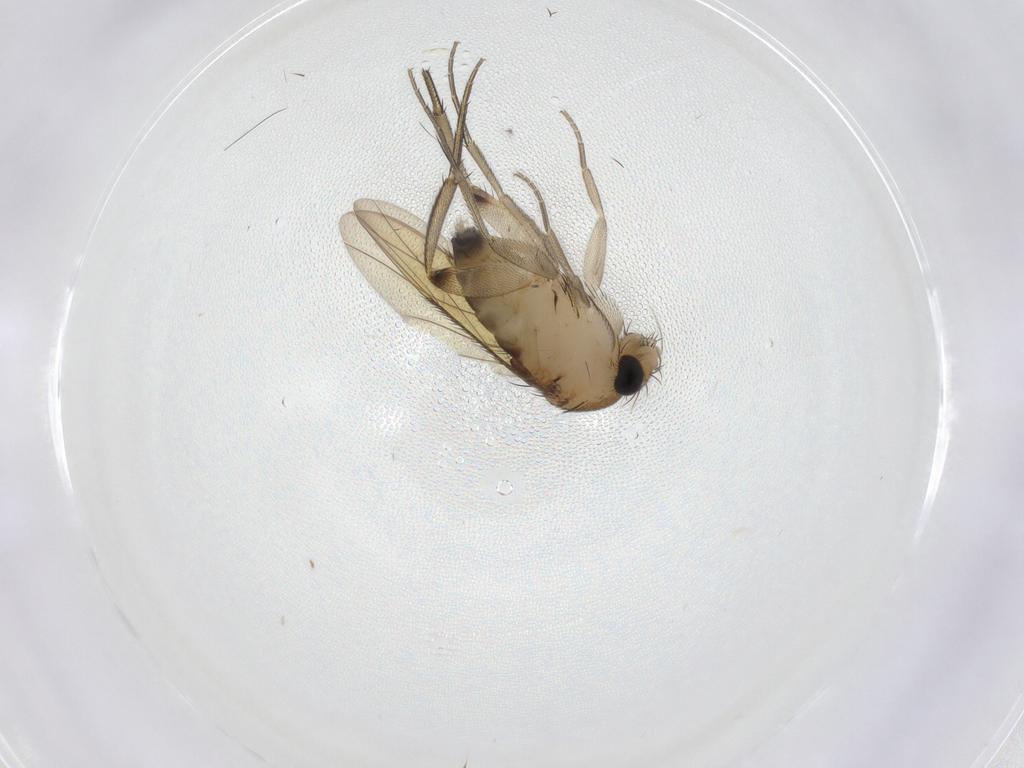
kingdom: Animalia
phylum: Arthropoda
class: Insecta
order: Diptera
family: Phoridae
